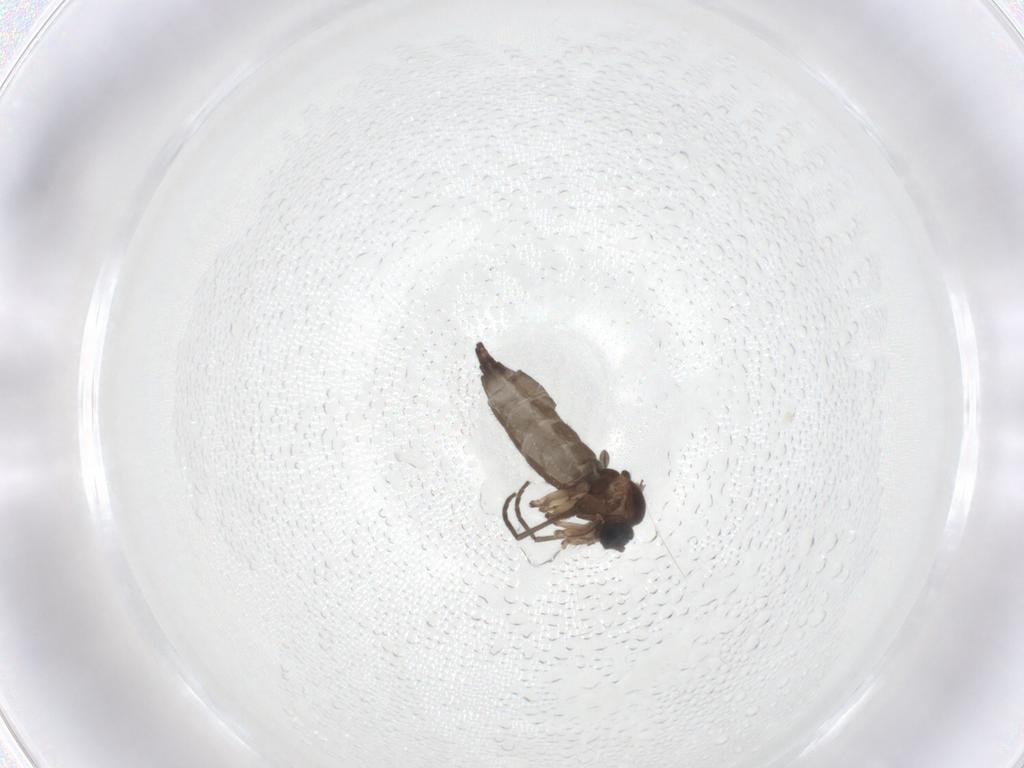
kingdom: Animalia
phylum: Arthropoda
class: Insecta
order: Diptera
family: Sciaridae
